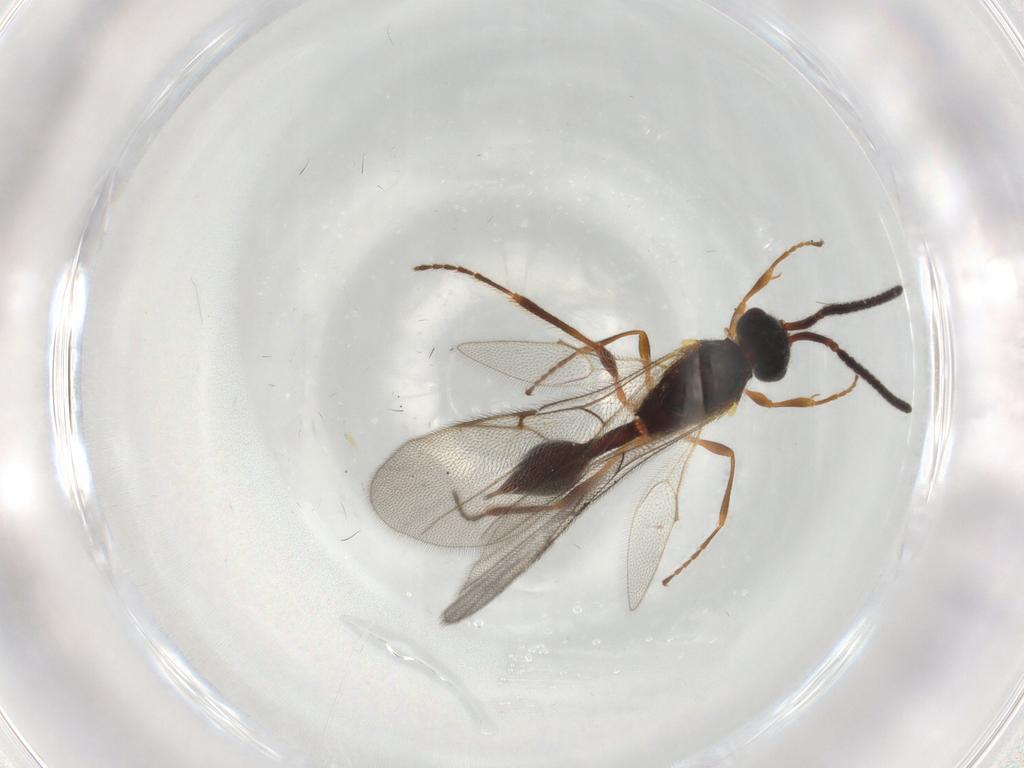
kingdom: Animalia
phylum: Arthropoda
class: Insecta
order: Hymenoptera
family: Diapriidae
